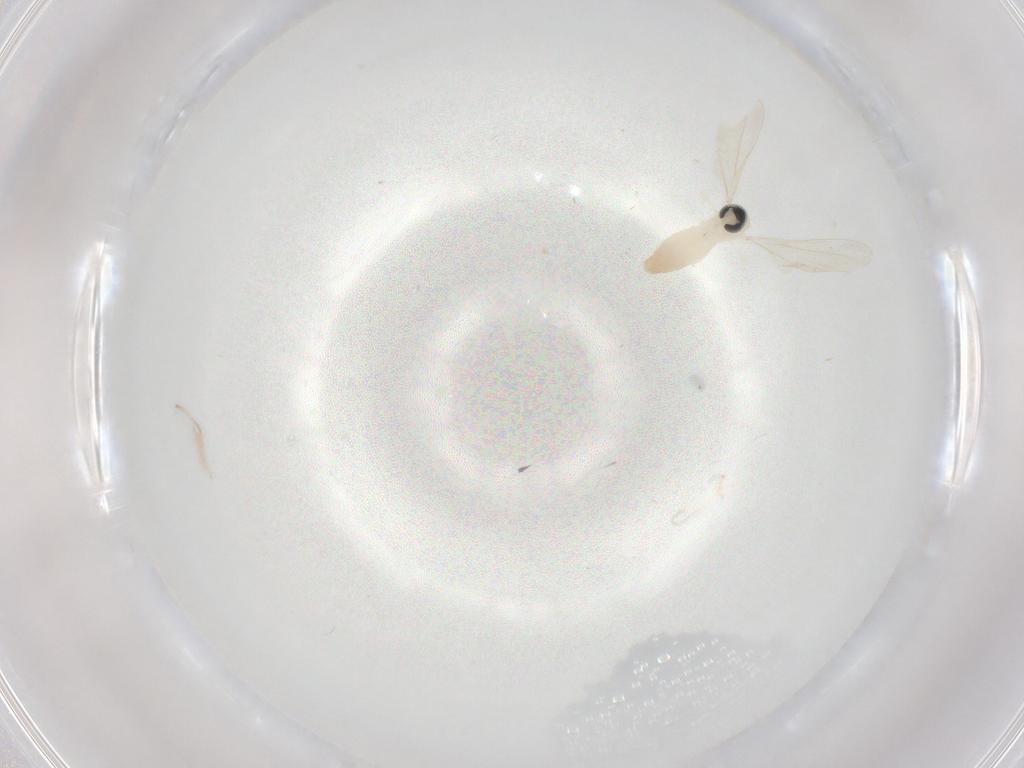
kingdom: Animalia
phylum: Arthropoda
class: Insecta
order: Diptera
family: Cecidomyiidae
